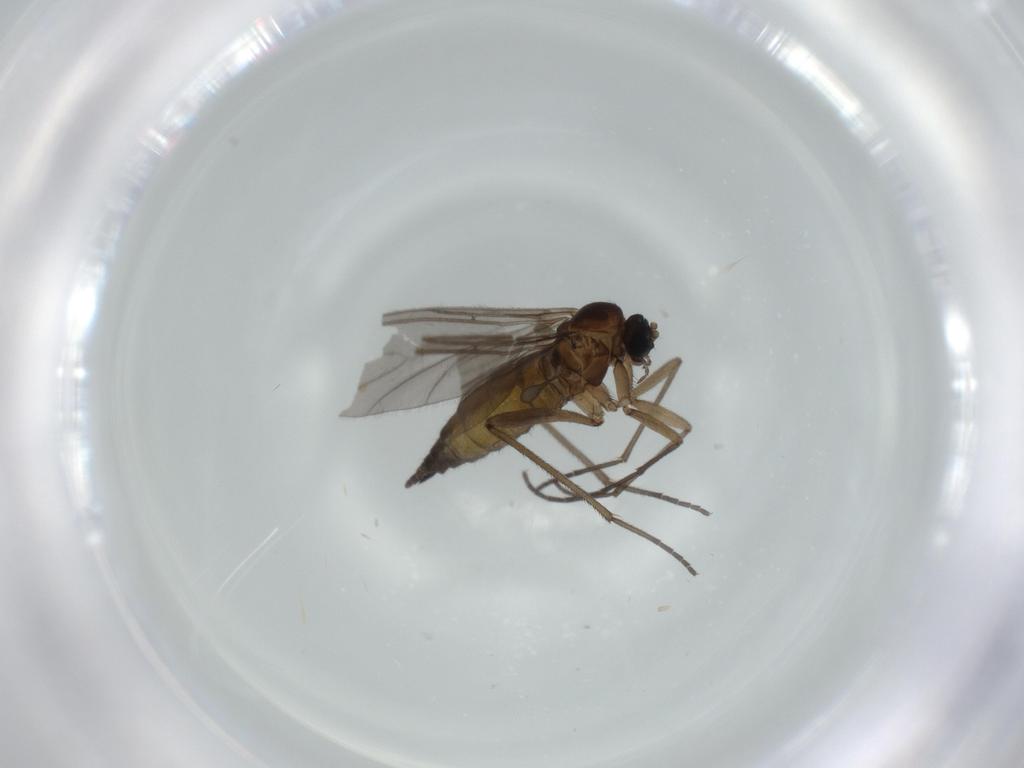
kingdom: Animalia
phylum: Arthropoda
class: Insecta
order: Diptera
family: Sciaridae
